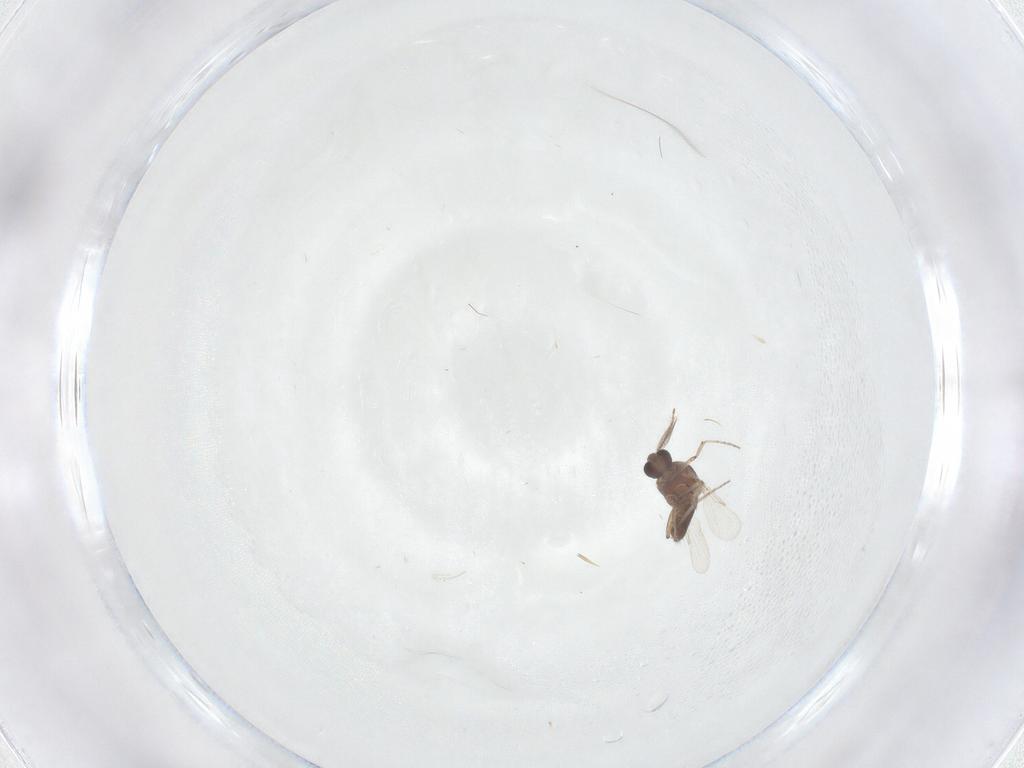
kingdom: Animalia
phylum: Arthropoda
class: Insecta
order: Diptera
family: Ceratopogonidae
